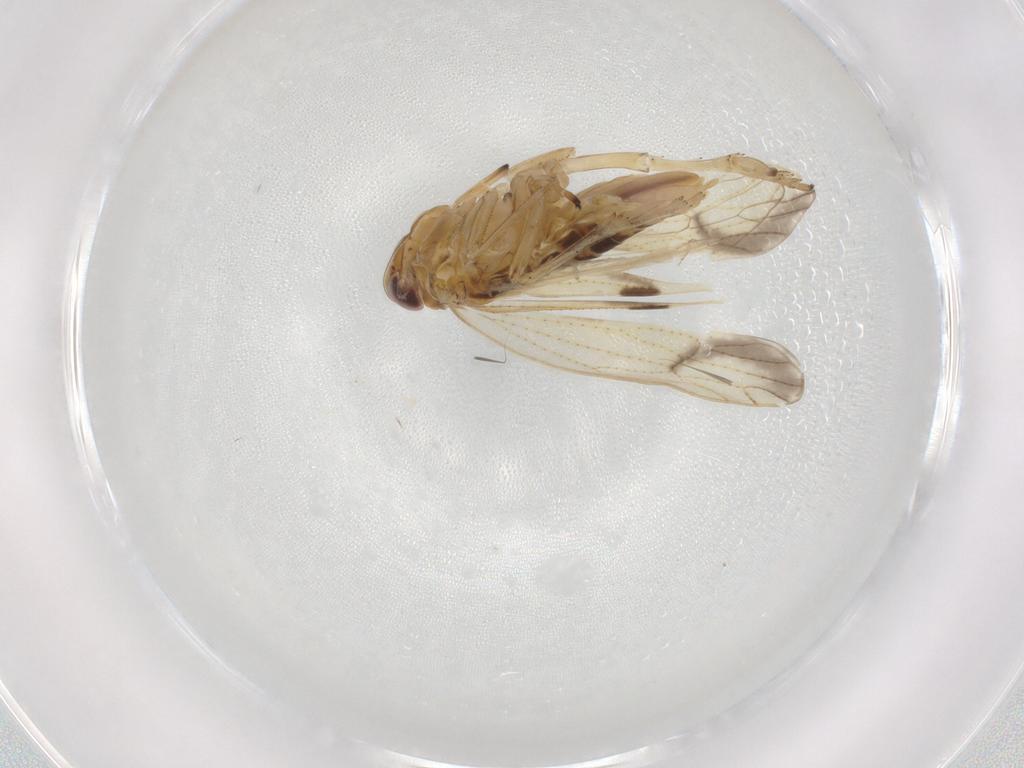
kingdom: Animalia
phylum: Arthropoda
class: Insecta
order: Hemiptera
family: Delphacidae
